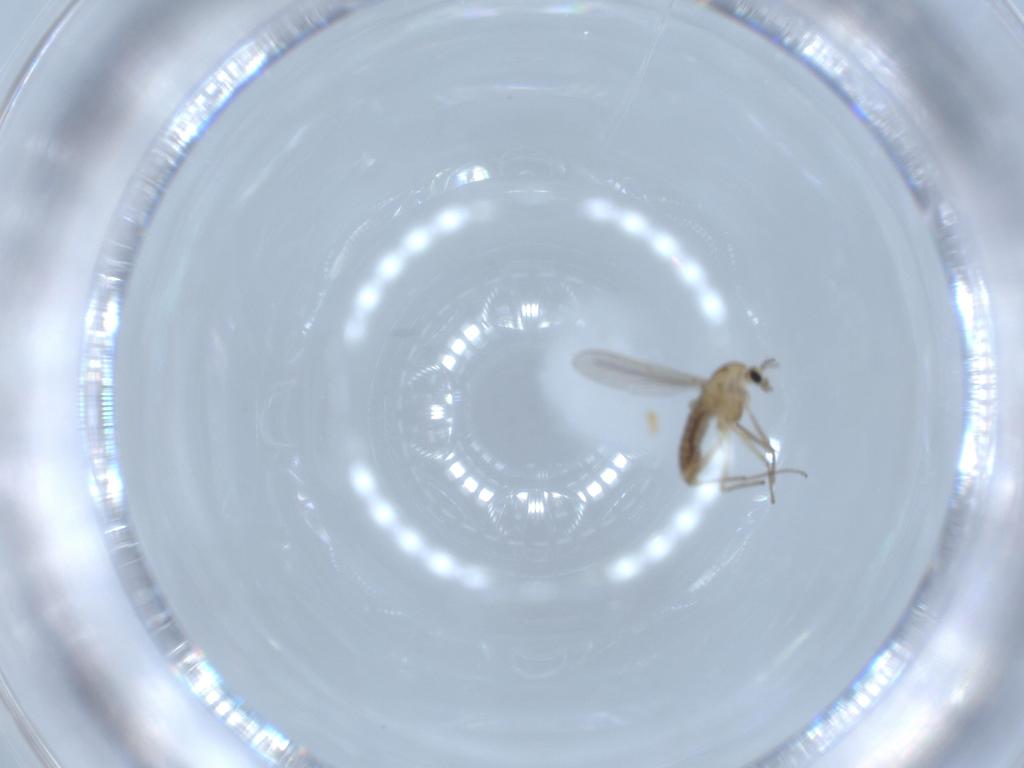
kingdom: Animalia
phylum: Arthropoda
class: Insecta
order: Diptera
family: Chironomidae
